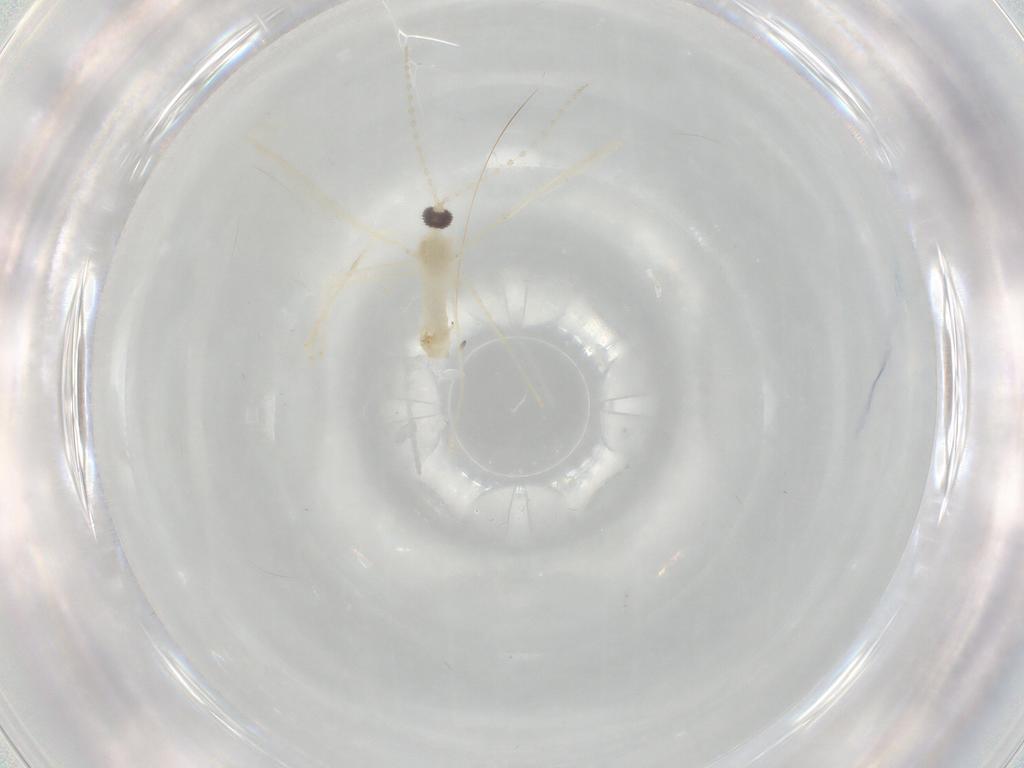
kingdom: Animalia
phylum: Arthropoda
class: Insecta
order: Diptera
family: Cecidomyiidae
